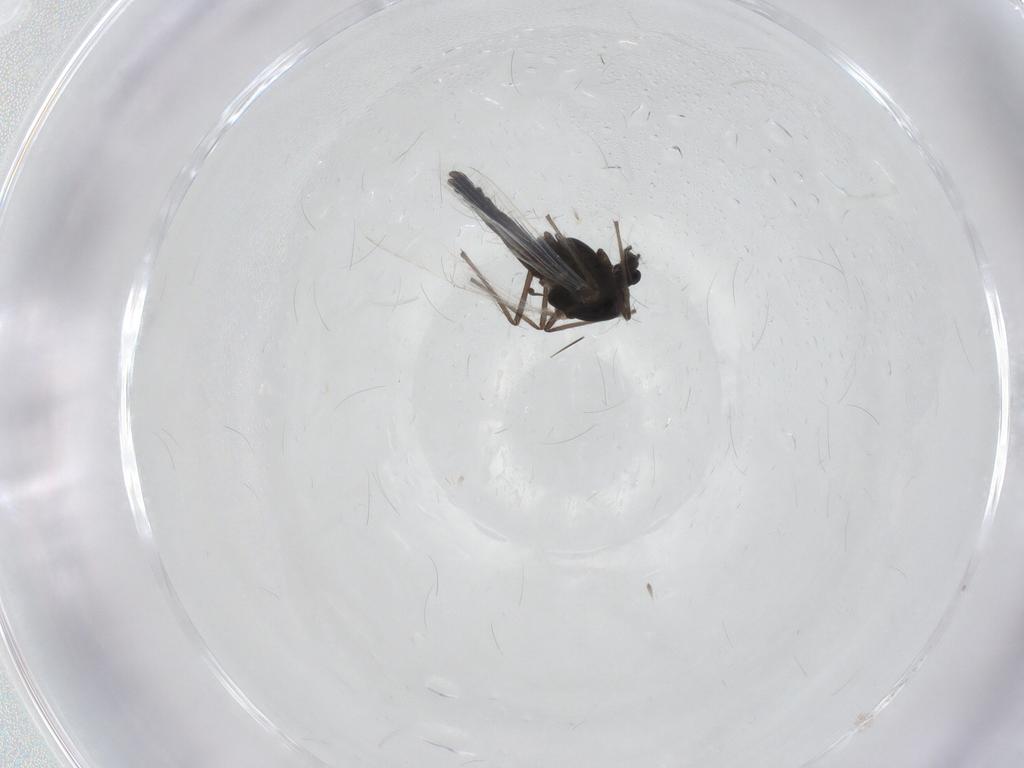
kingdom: Animalia
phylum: Arthropoda
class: Insecta
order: Diptera
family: Chironomidae
